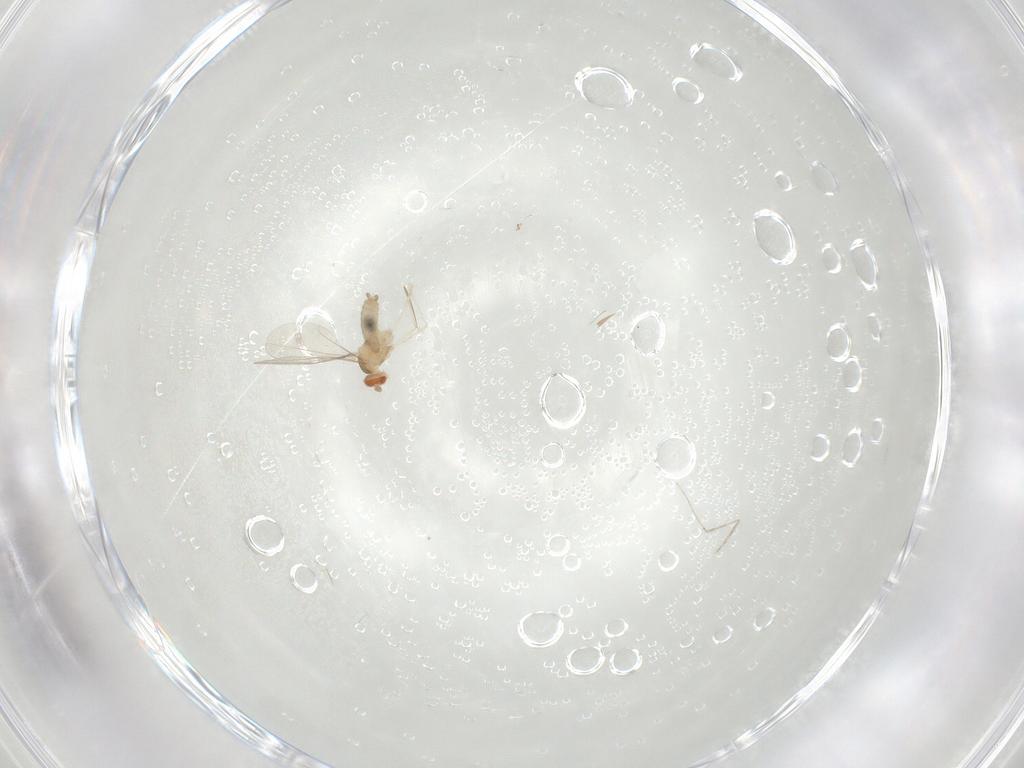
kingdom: Animalia
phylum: Arthropoda
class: Insecta
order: Diptera
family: Cecidomyiidae
